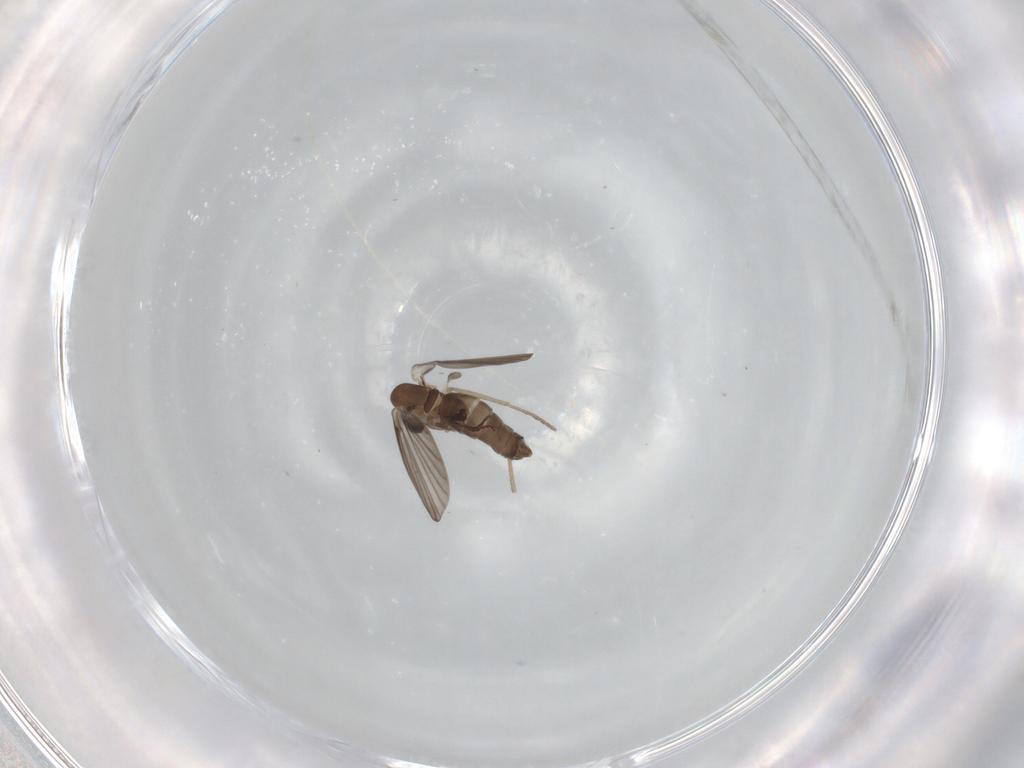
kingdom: Animalia
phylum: Arthropoda
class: Insecta
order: Diptera
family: Psychodidae
